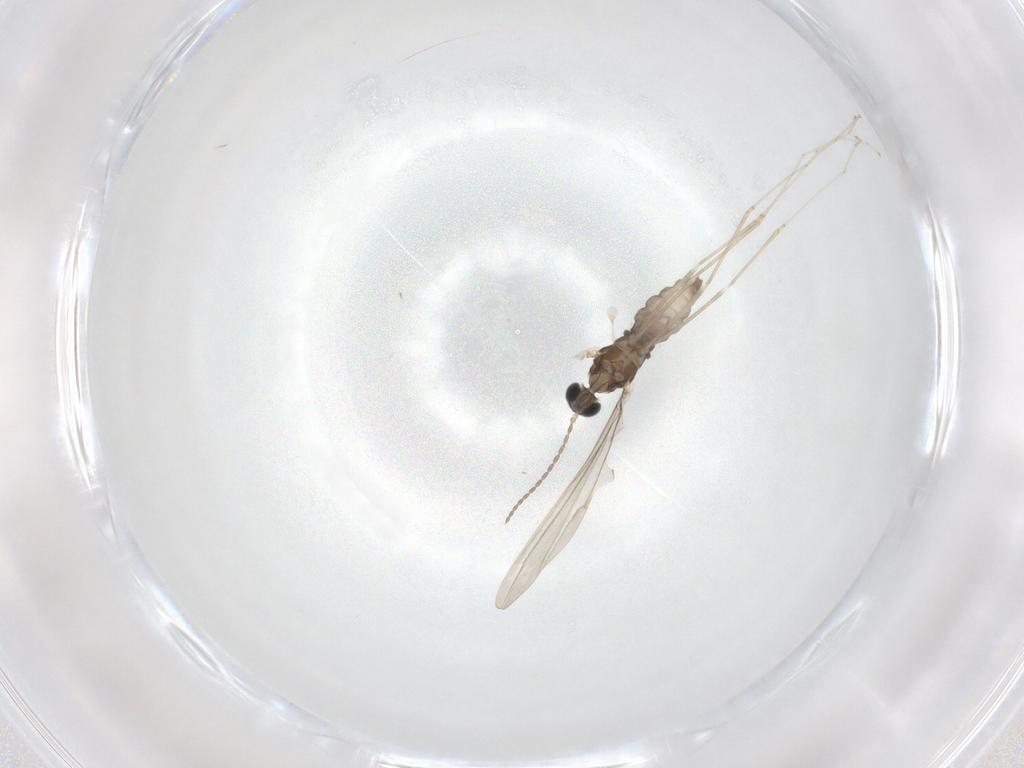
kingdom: Animalia
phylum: Arthropoda
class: Insecta
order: Diptera
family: Cecidomyiidae
